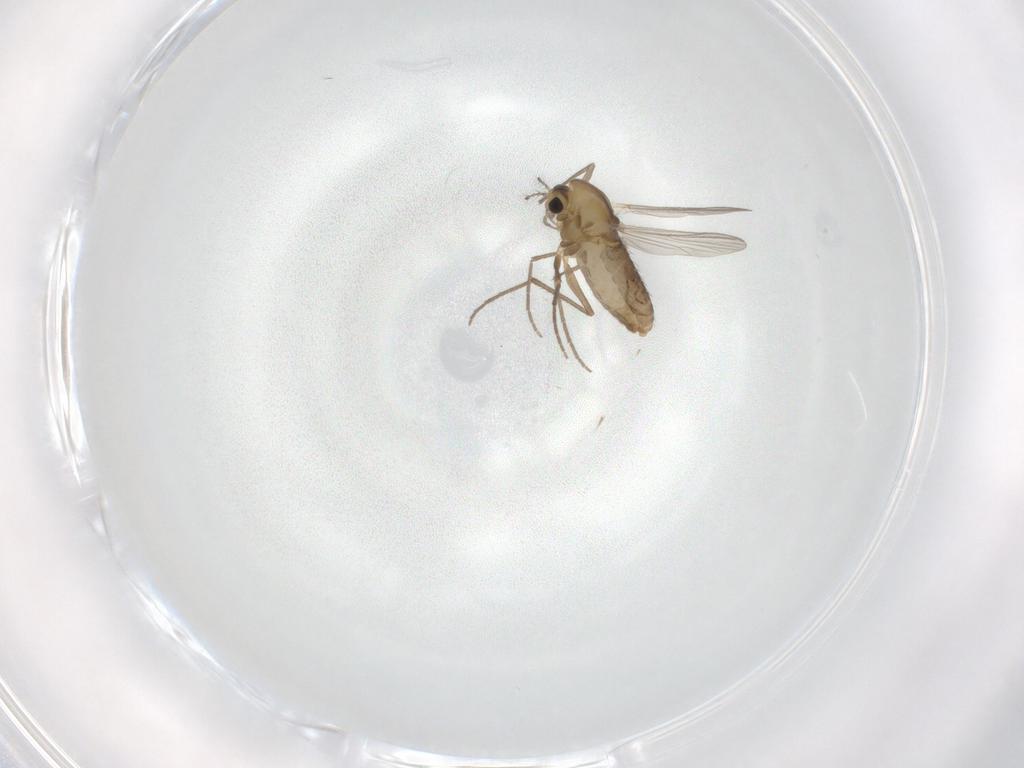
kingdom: Animalia
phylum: Arthropoda
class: Insecta
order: Diptera
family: Chironomidae
